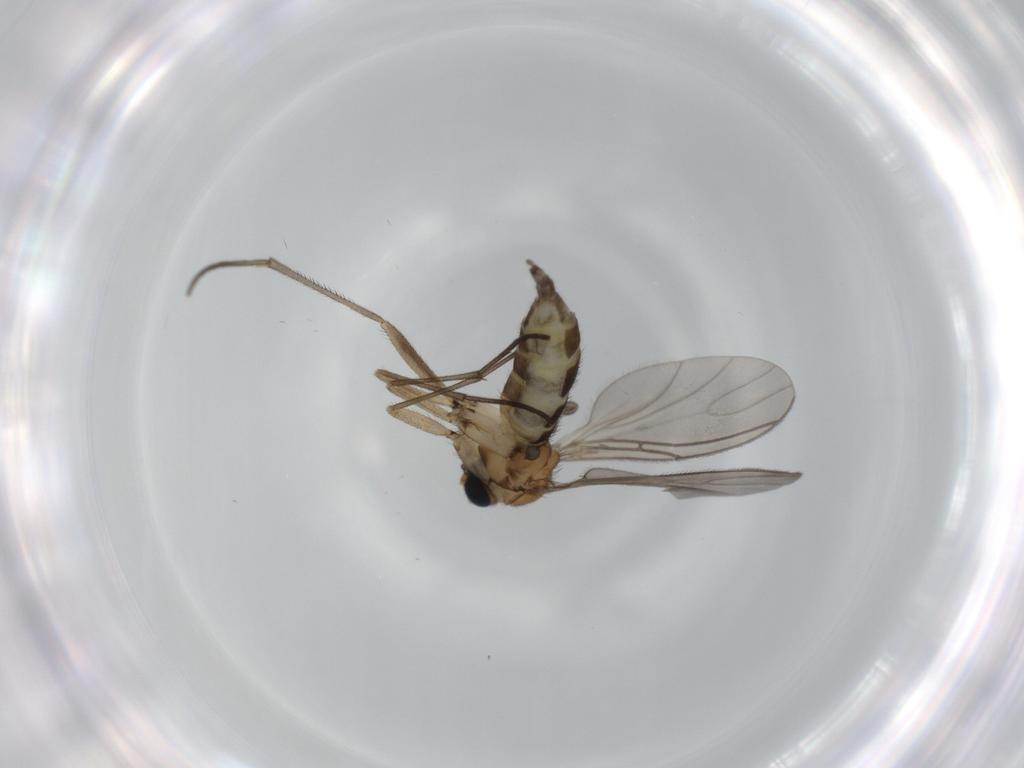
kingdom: Animalia
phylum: Arthropoda
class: Insecta
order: Diptera
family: Sciaridae
